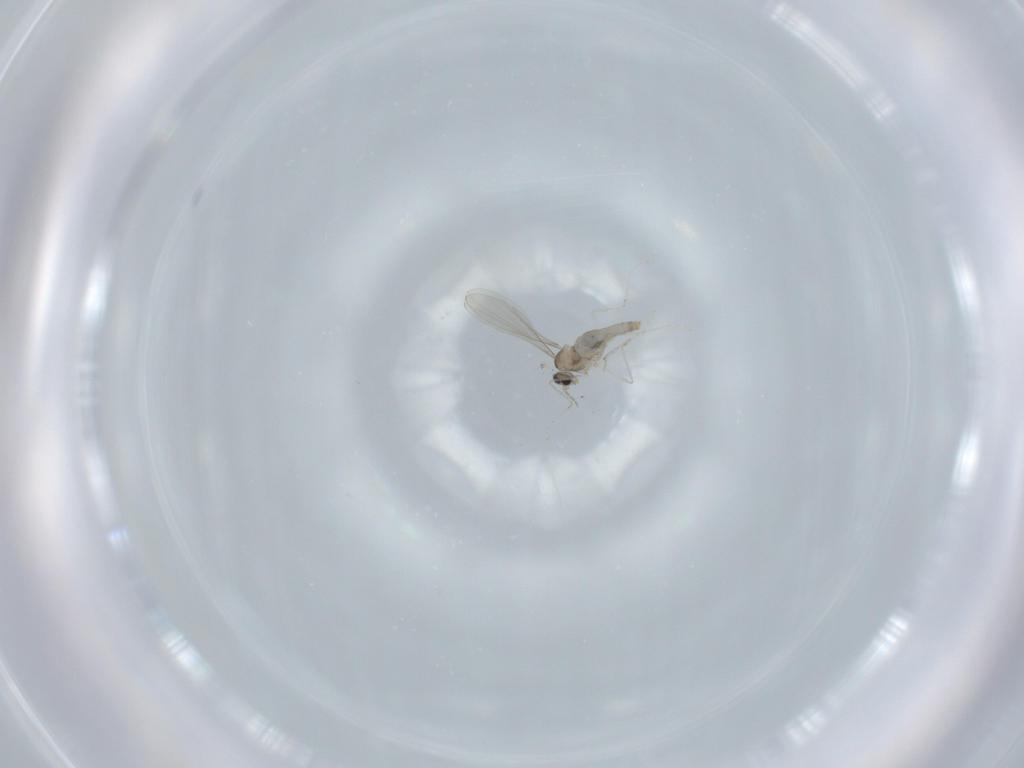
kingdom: Animalia
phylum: Arthropoda
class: Insecta
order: Diptera
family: Cecidomyiidae
